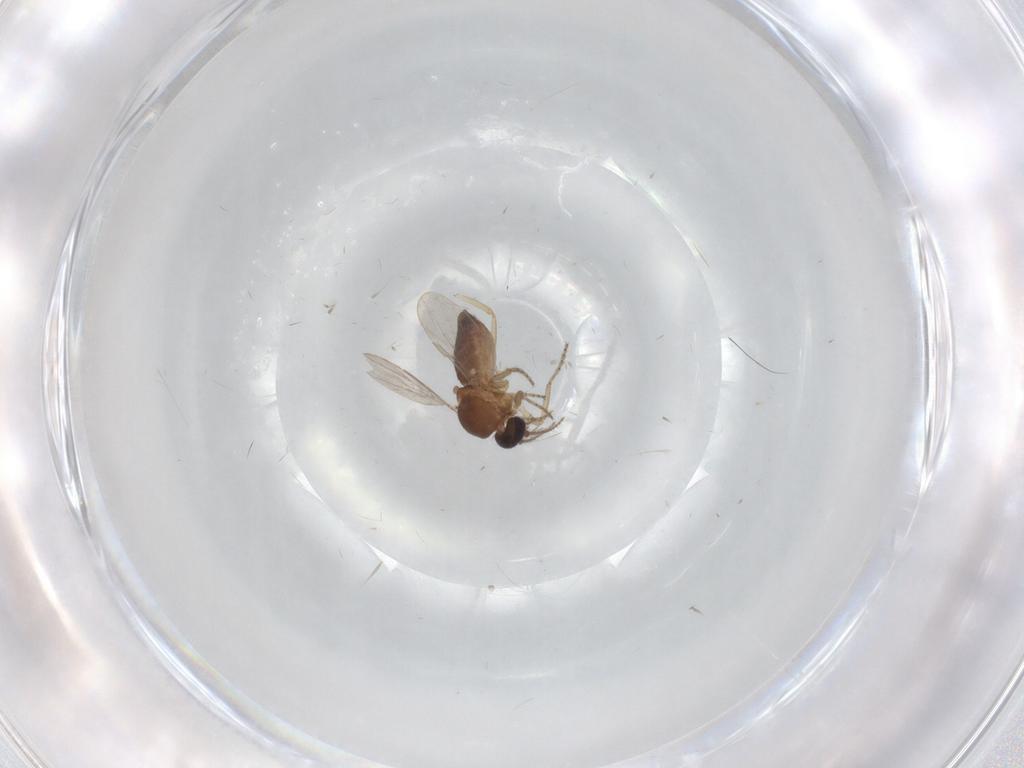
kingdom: Animalia
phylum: Arthropoda
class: Insecta
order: Diptera
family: Ceratopogonidae
